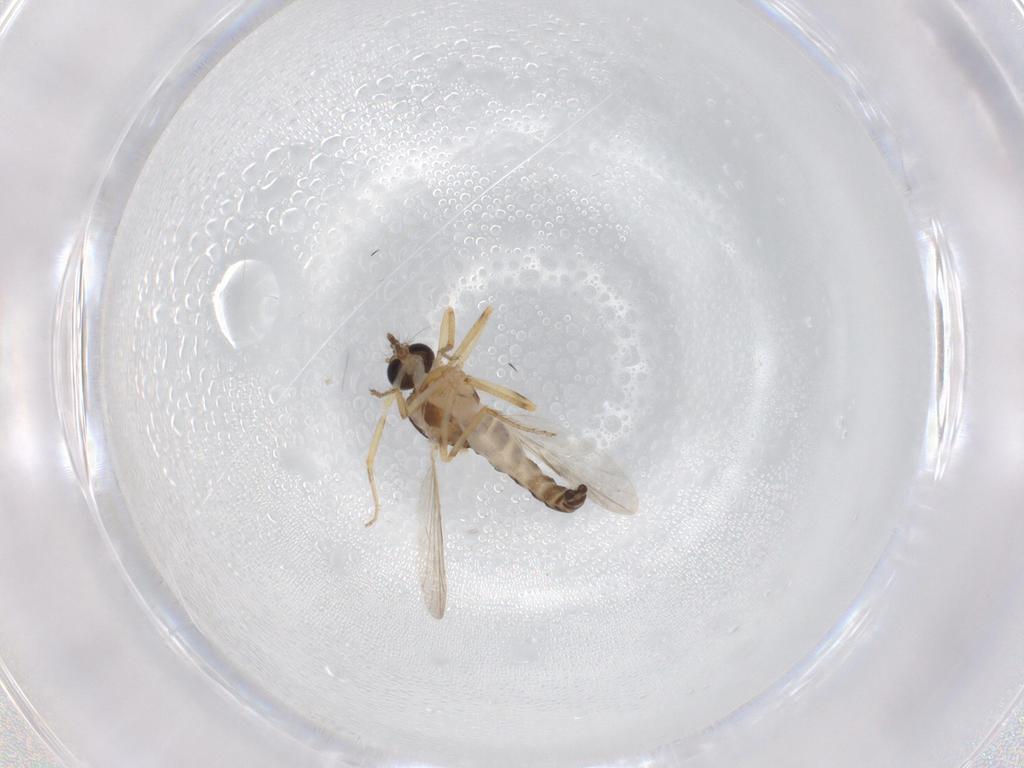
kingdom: Animalia
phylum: Arthropoda
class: Insecta
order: Diptera
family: Ceratopogonidae
